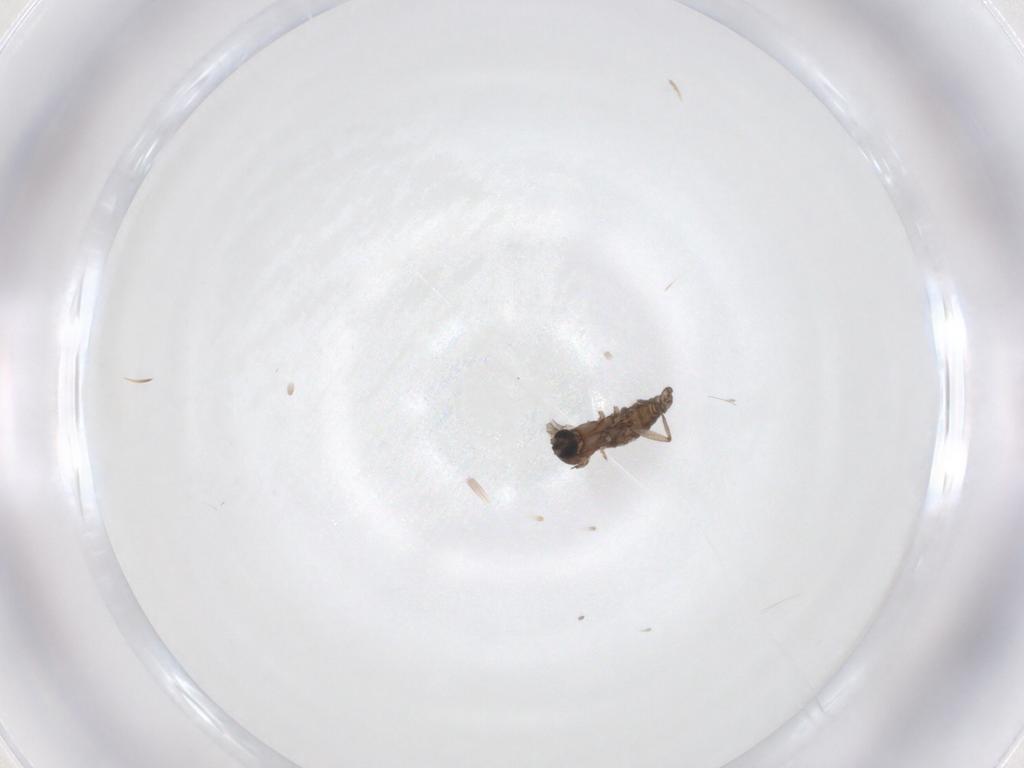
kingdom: Animalia
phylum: Arthropoda
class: Insecta
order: Diptera
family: Sciaridae
